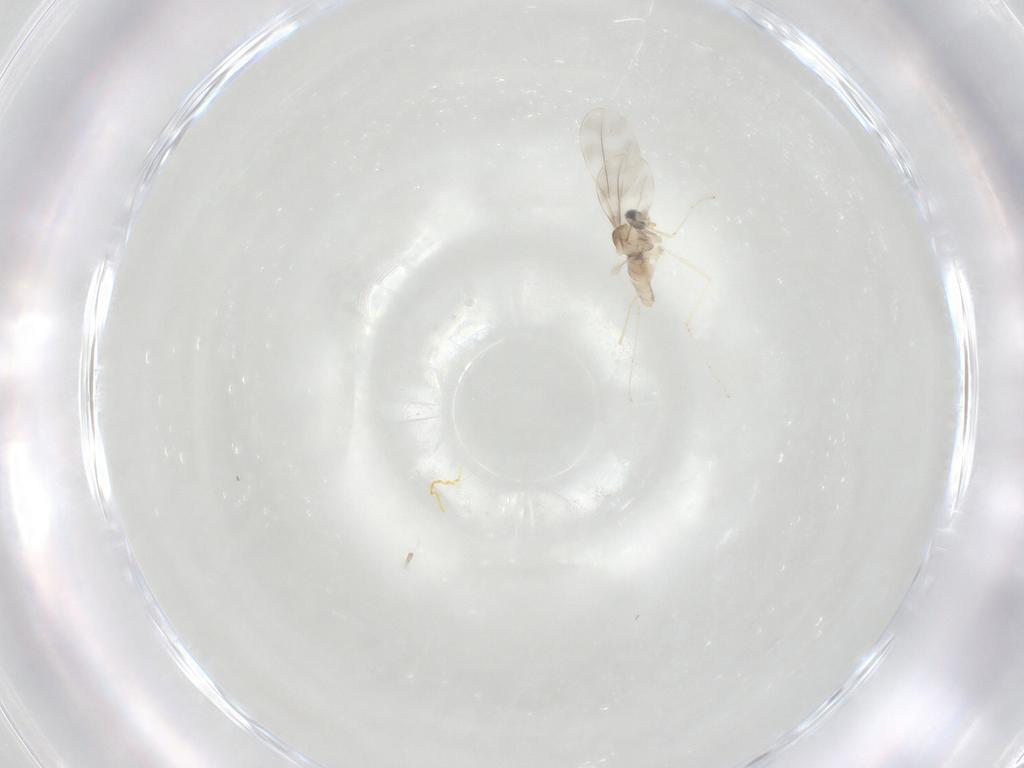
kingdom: Animalia
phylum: Arthropoda
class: Insecta
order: Diptera
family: Cecidomyiidae
